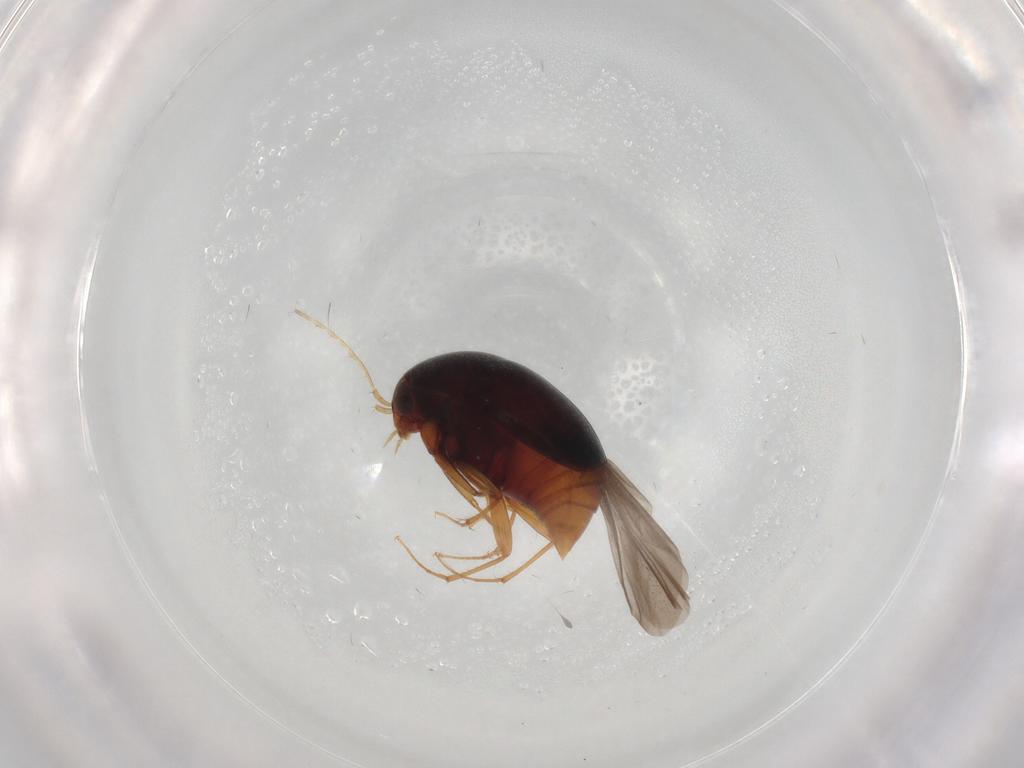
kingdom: Animalia
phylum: Arthropoda
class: Insecta
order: Coleoptera
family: Staphylinidae
